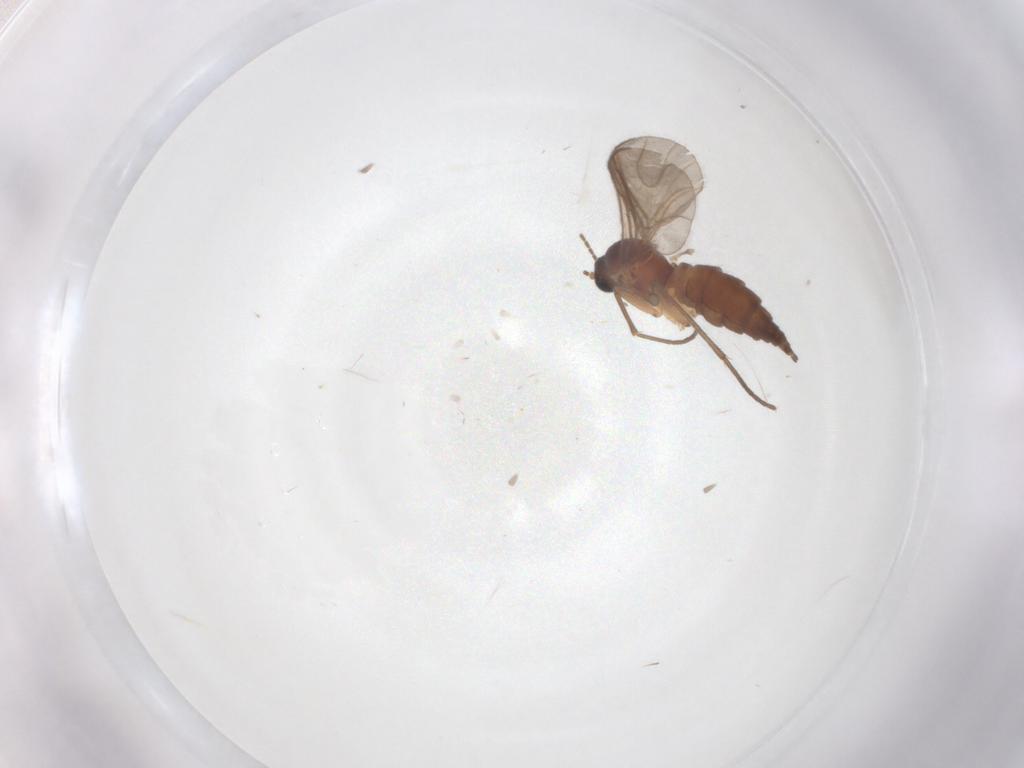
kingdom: Animalia
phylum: Arthropoda
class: Insecta
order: Diptera
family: Sciaridae
